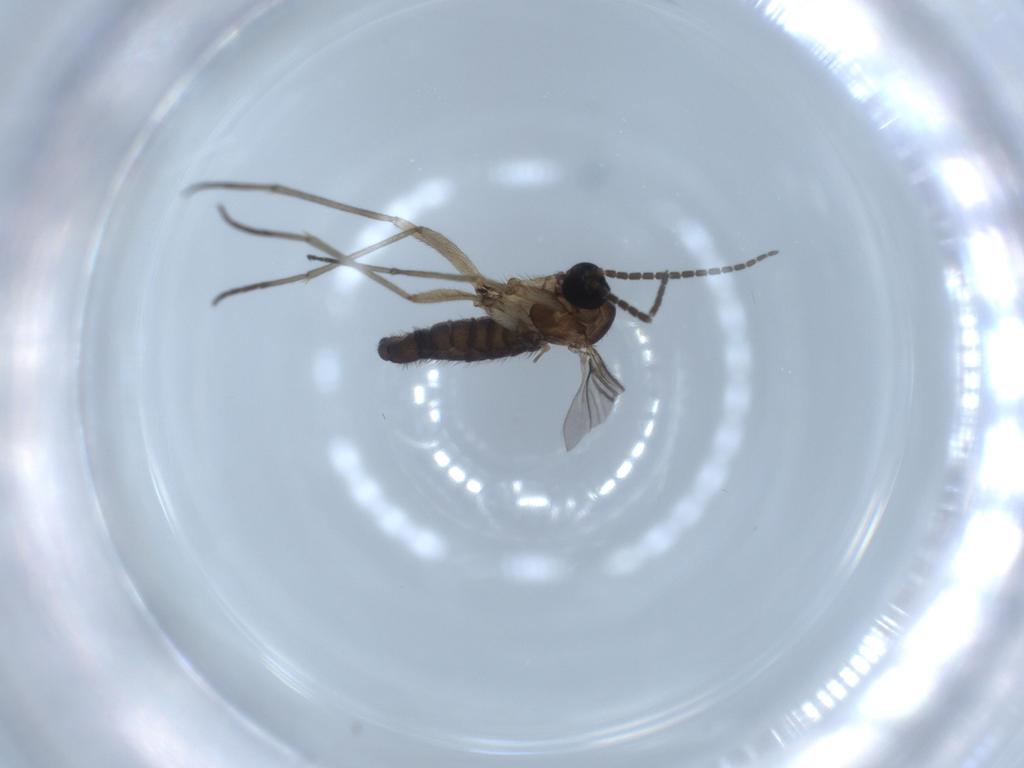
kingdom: Animalia
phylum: Arthropoda
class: Insecta
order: Diptera
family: Sciaridae
